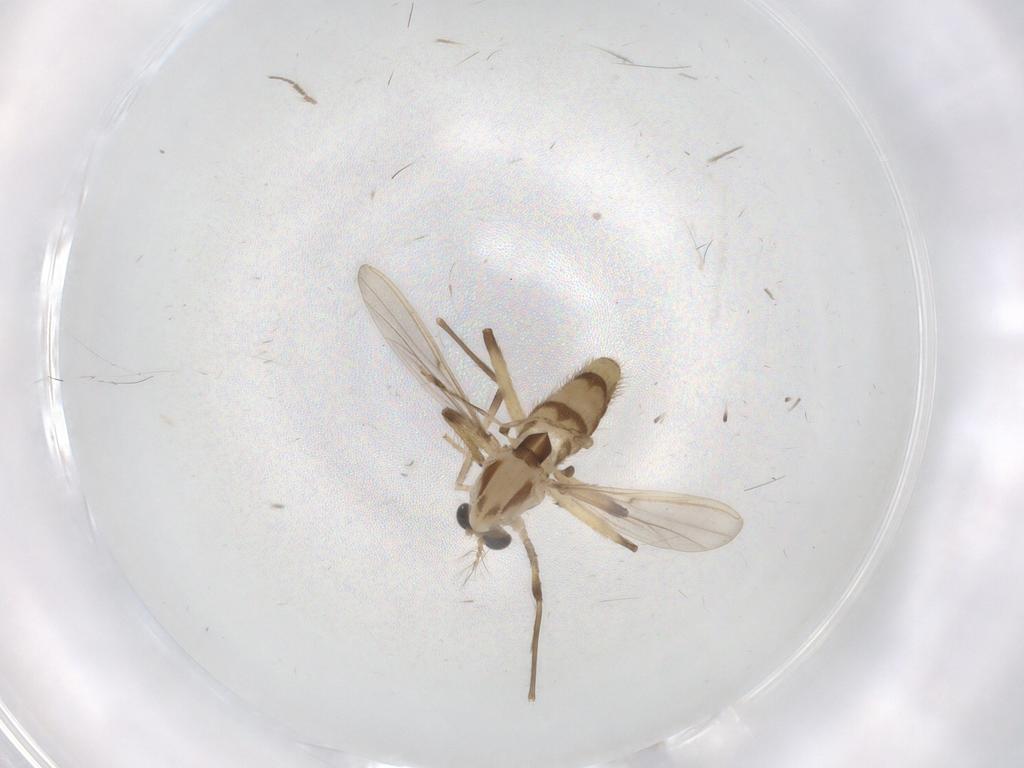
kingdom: Animalia
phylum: Arthropoda
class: Insecta
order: Diptera
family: Chironomidae
